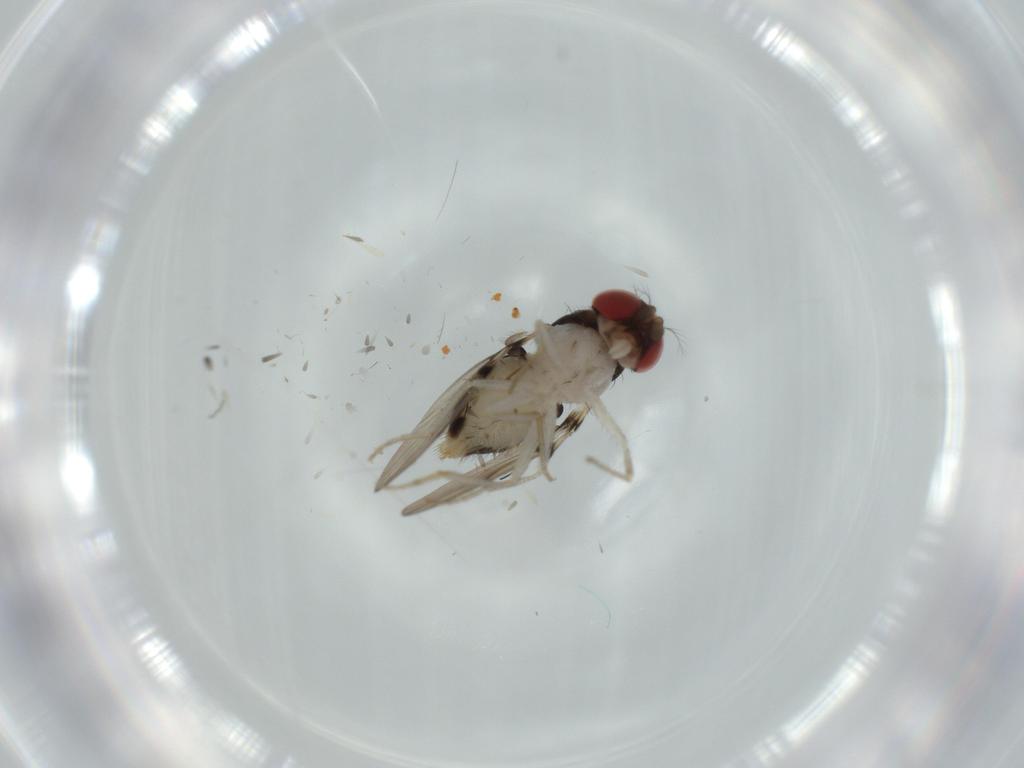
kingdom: Animalia
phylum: Arthropoda
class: Insecta
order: Diptera
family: Drosophilidae
